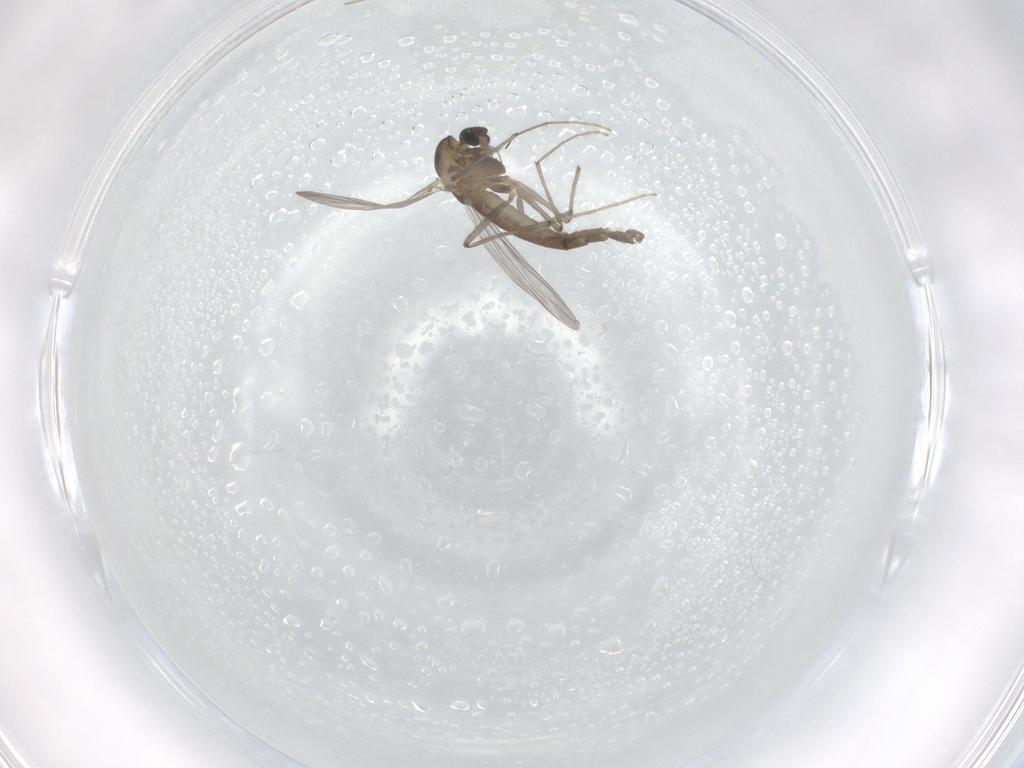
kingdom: Animalia
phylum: Arthropoda
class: Insecta
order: Diptera
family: Chironomidae
